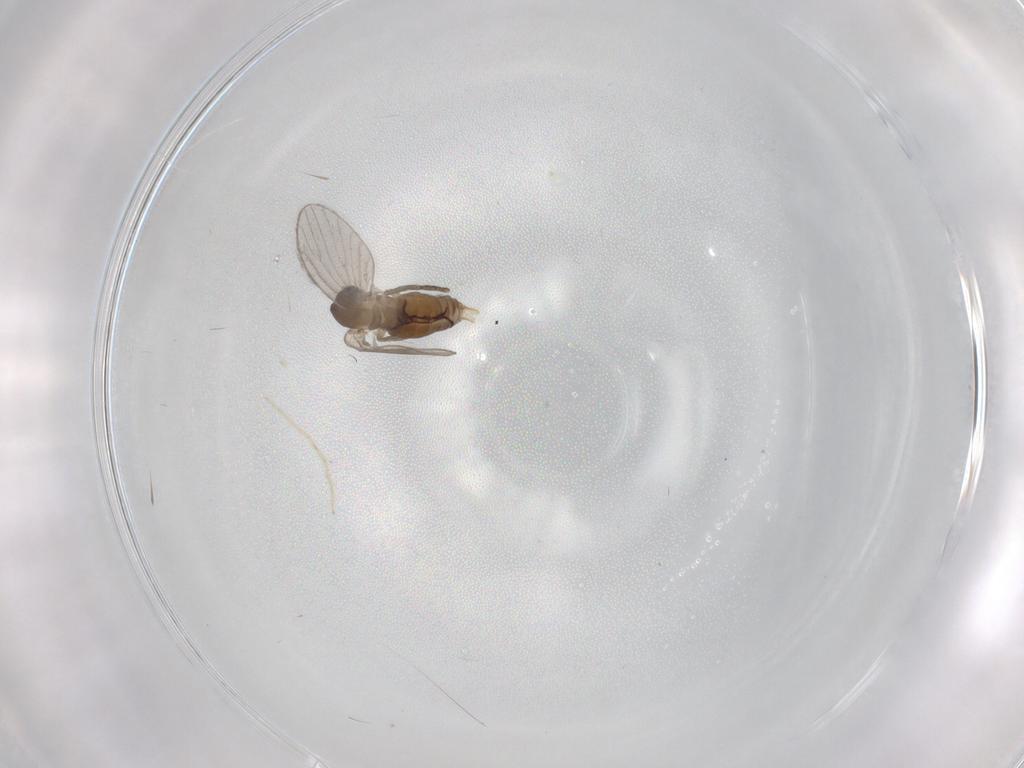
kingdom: Animalia
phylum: Arthropoda
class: Insecta
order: Diptera
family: Sciaridae
